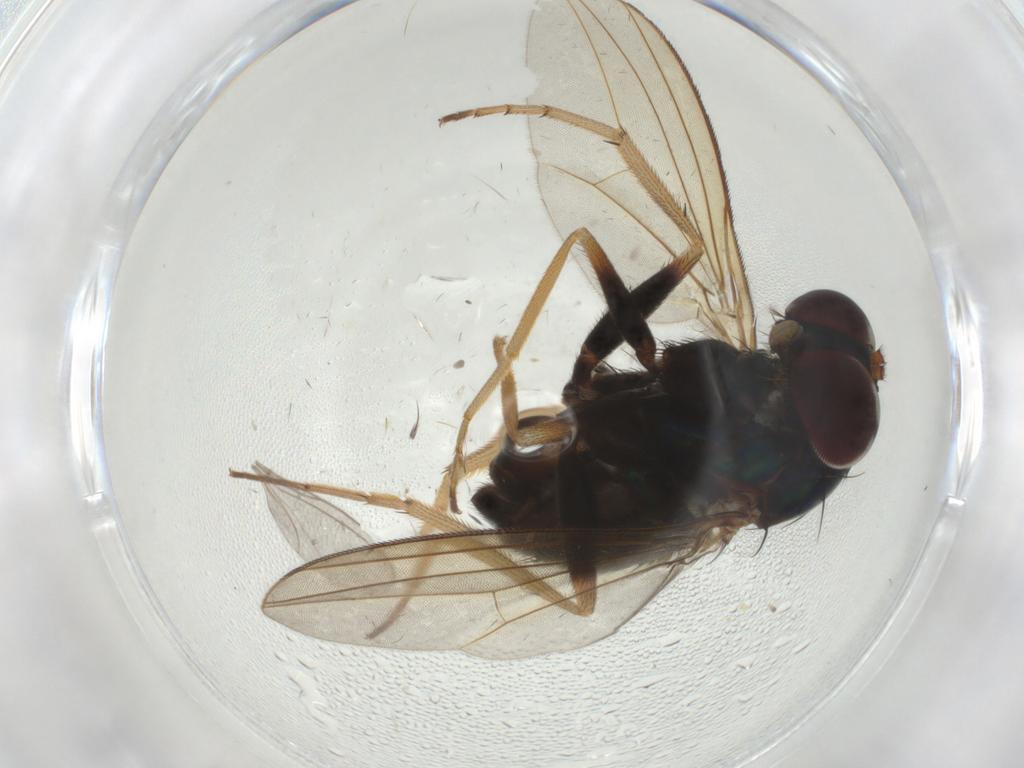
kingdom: Animalia
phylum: Arthropoda
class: Insecta
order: Diptera
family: Dolichopodidae
